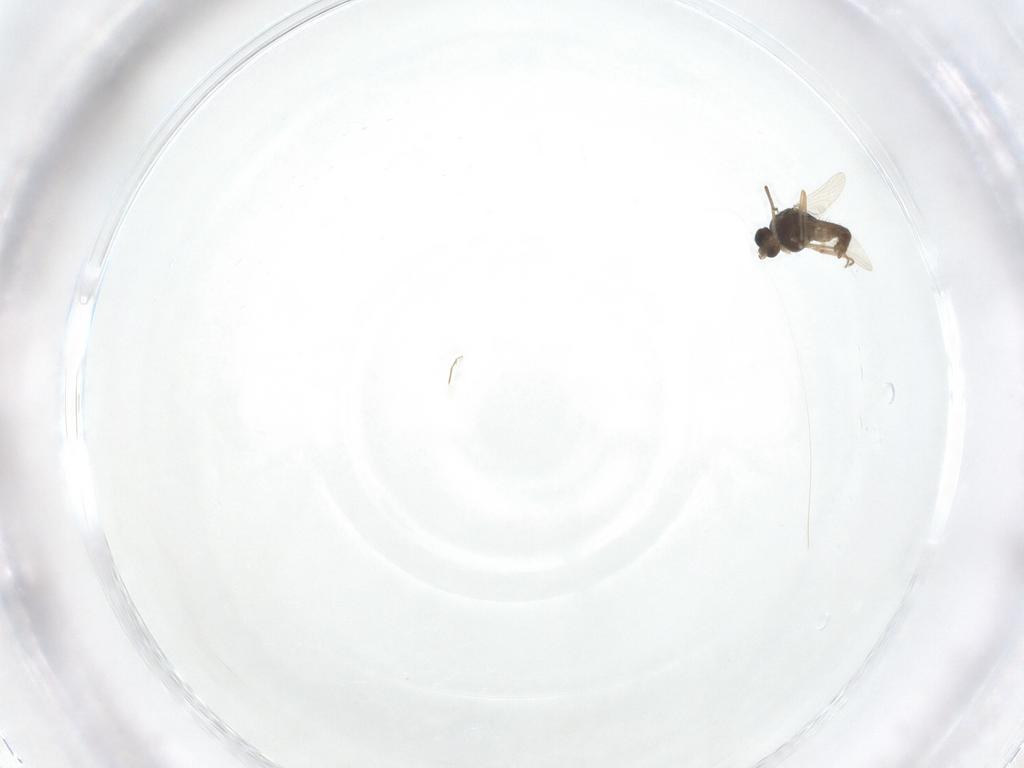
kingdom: Animalia
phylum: Arthropoda
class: Insecta
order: Diptera
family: Chironomidae
